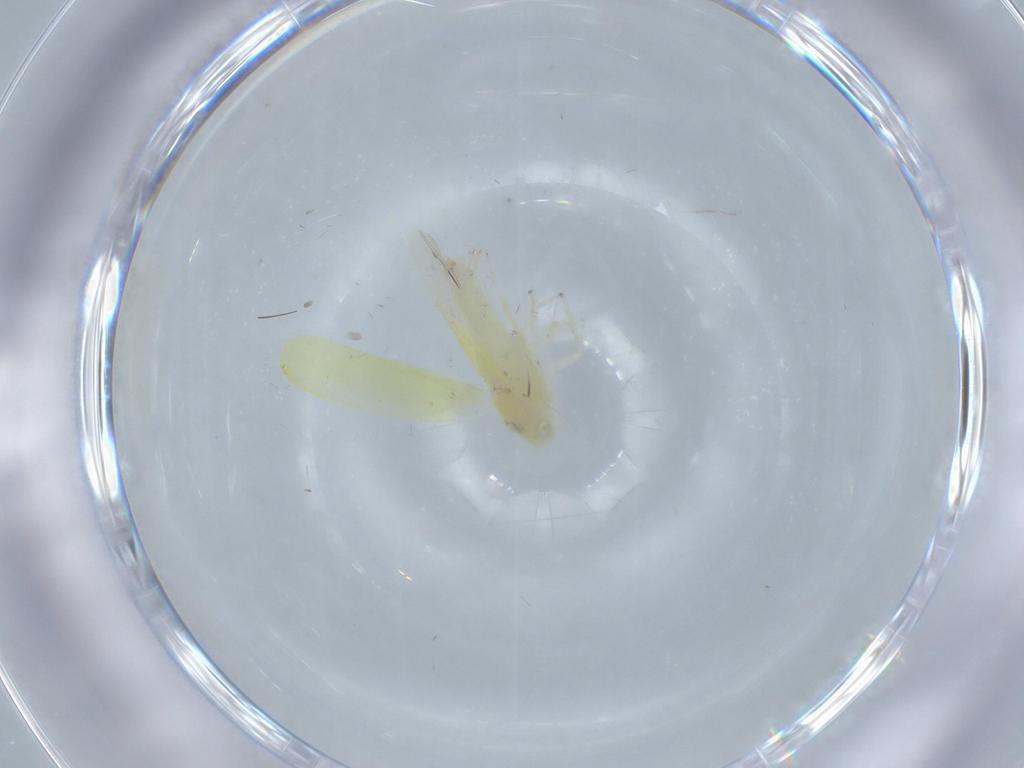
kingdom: Animalia
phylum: Arthropoda
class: Insecta
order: Hemiptera
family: Cicadellidae
